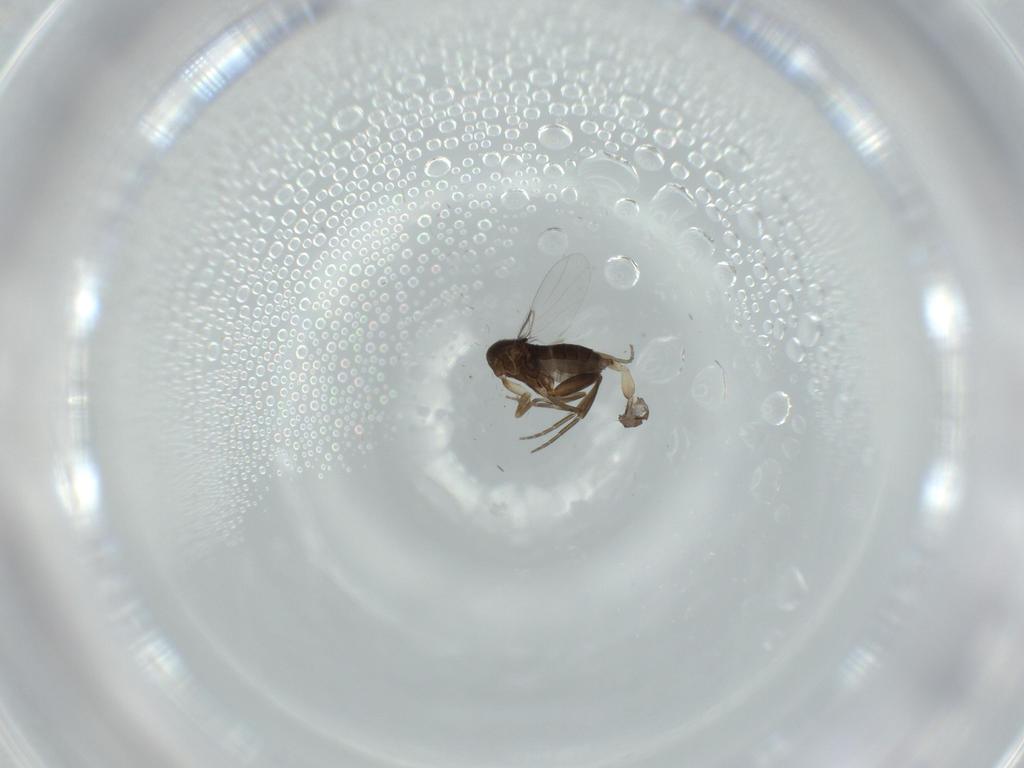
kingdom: Animalia
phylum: Arthropoda
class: Insecta
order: Diptera
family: Phoridae
